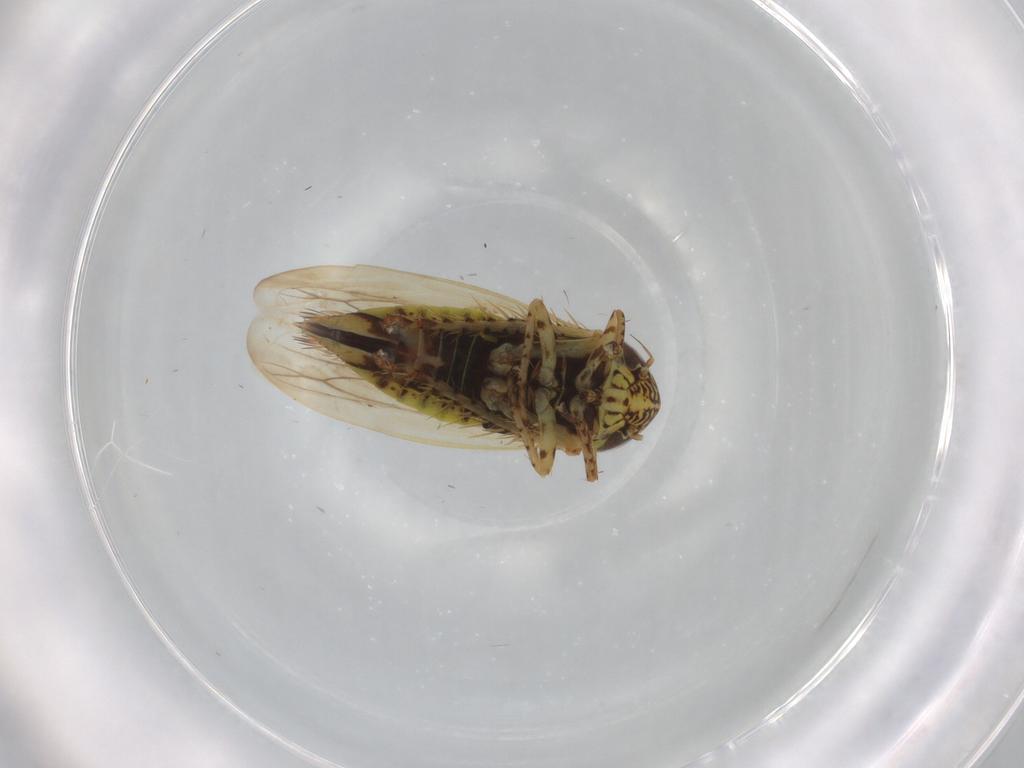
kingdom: Animalia
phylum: Arthropoda
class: Insecta
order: Hemiptera
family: Cicadellidae
